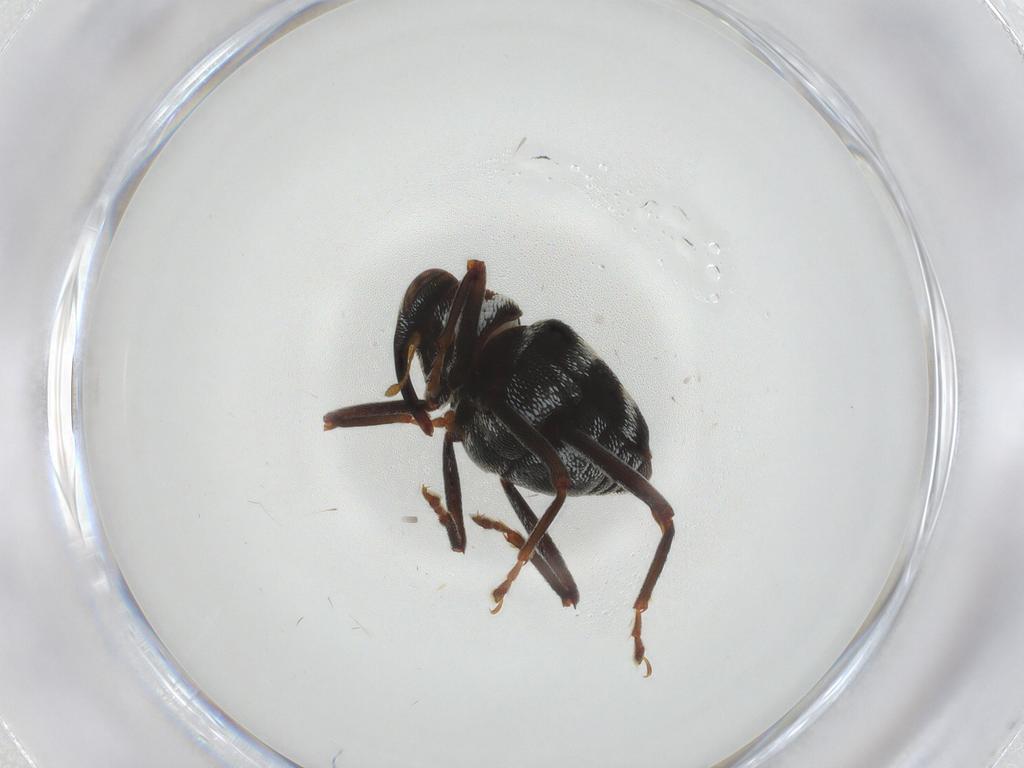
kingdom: Animalia
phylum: Arthropoda
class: Insecta
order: Coleoptera
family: Curculionidae
